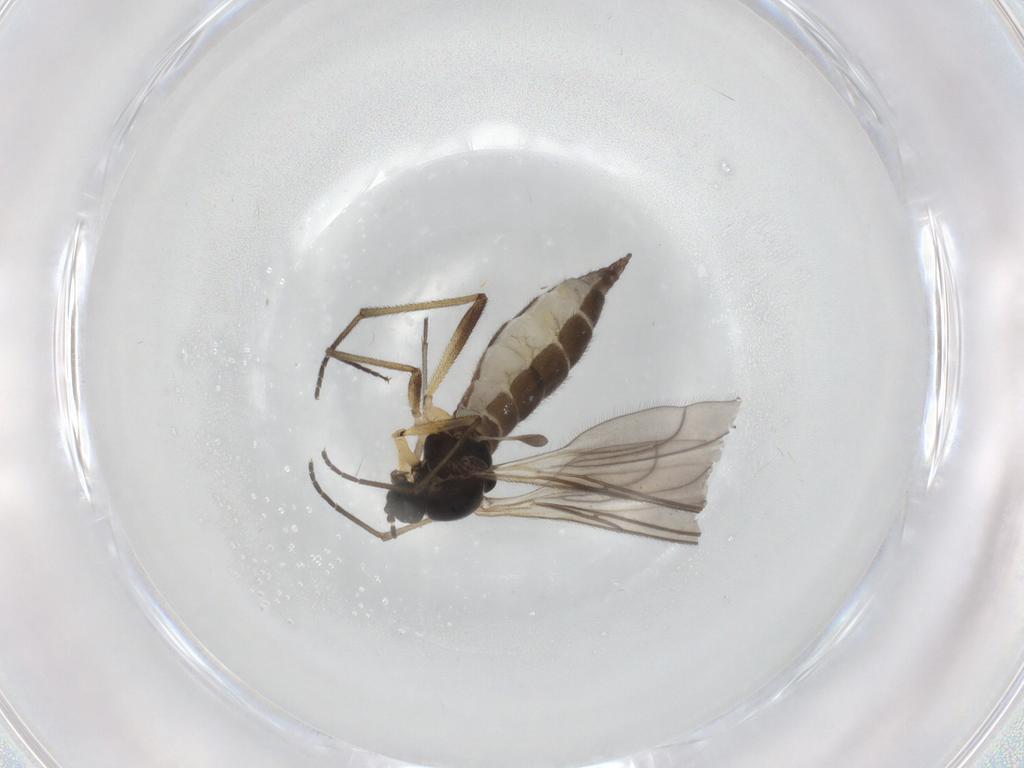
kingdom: Animalia
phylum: Arthropoda
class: Insecta
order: Diptera
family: Sciaridae
